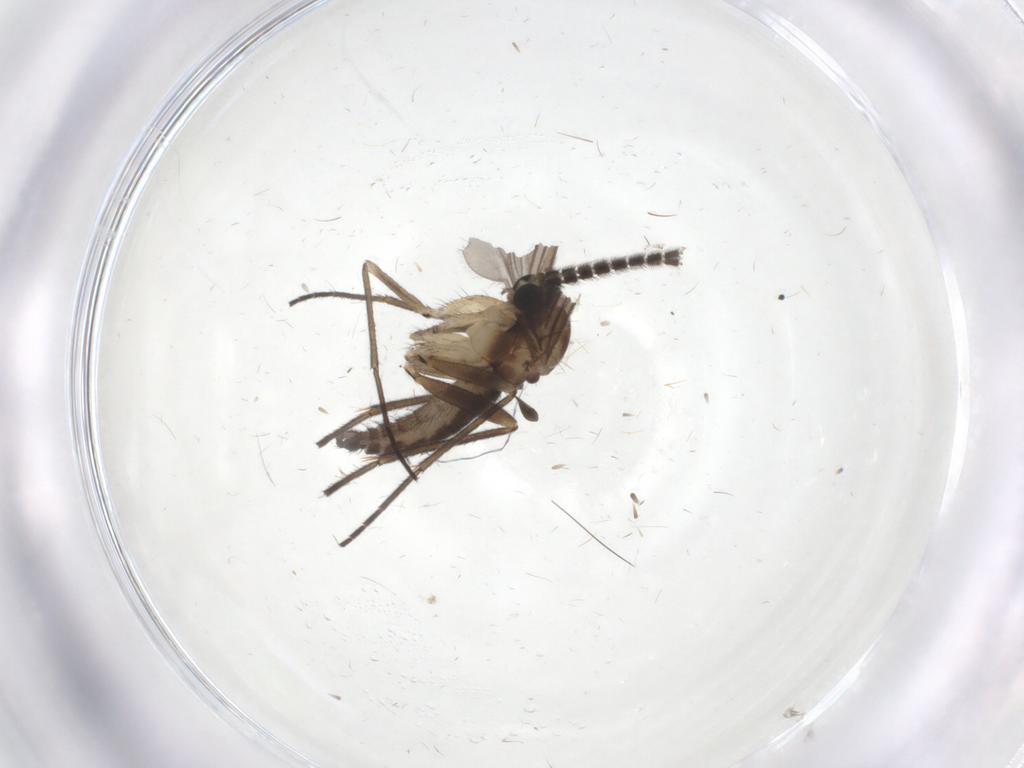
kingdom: Animalia
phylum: Arthropoda
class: Insecta
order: Diptera
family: Sciaridae
